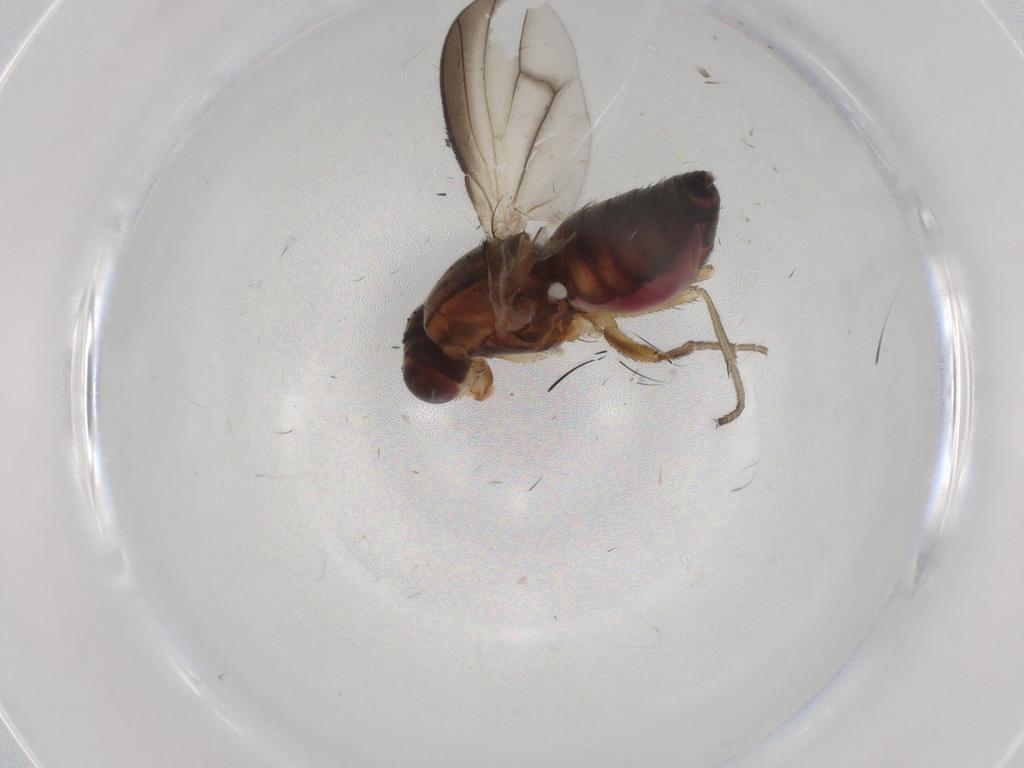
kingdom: Animalia
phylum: Arthropoda
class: Insecta
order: Diptera
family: Heleomyzidae
